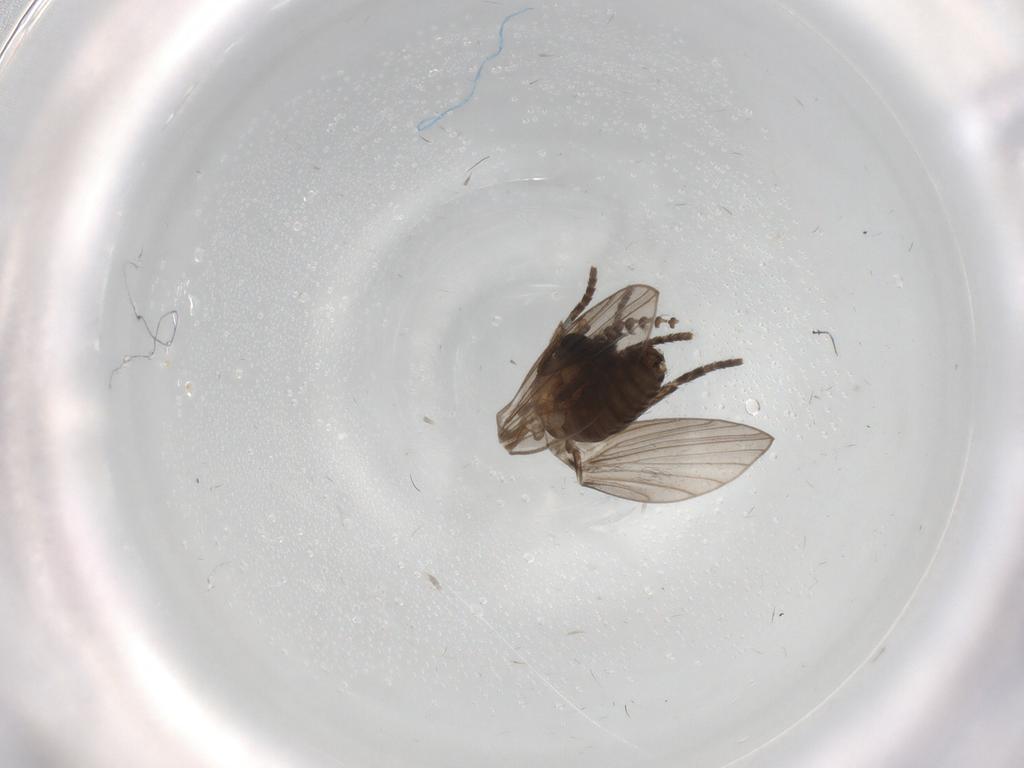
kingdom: Animalia
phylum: Arthropoda
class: Insecta
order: Diptera
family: Psychodidae
